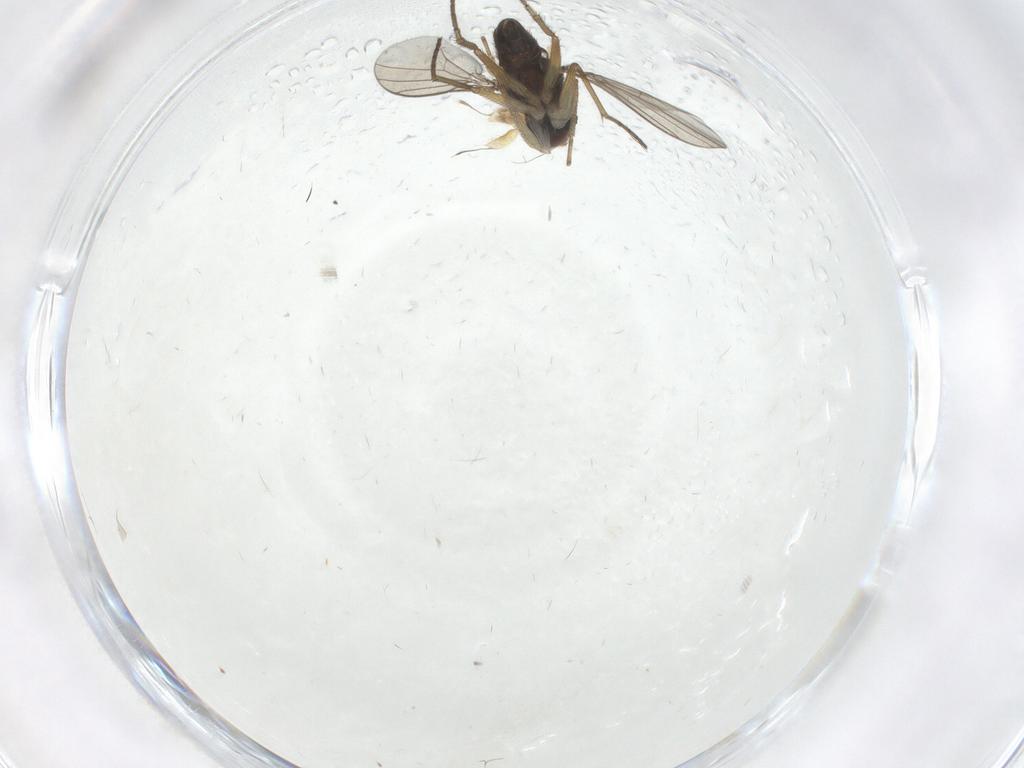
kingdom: Animalia
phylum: Arthropoda
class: Insecta
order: Diptera
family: Dolichopodidae
